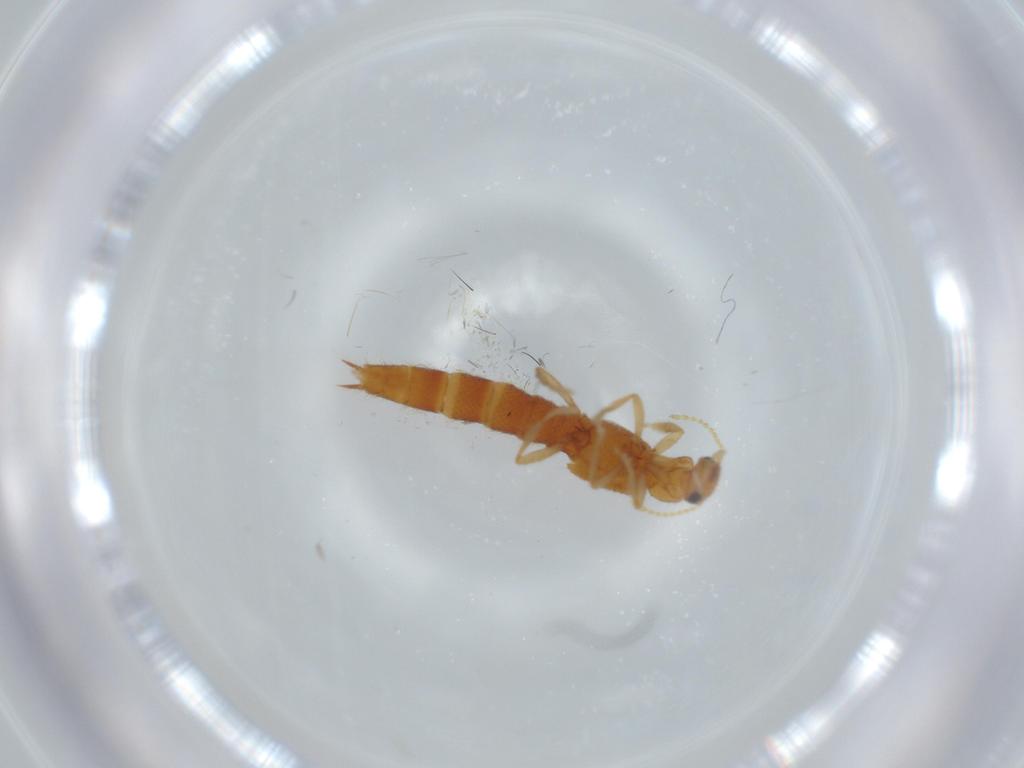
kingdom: Animalia
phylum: Arthropoda
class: Insecta
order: Coleoptera
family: Staphylinidae
